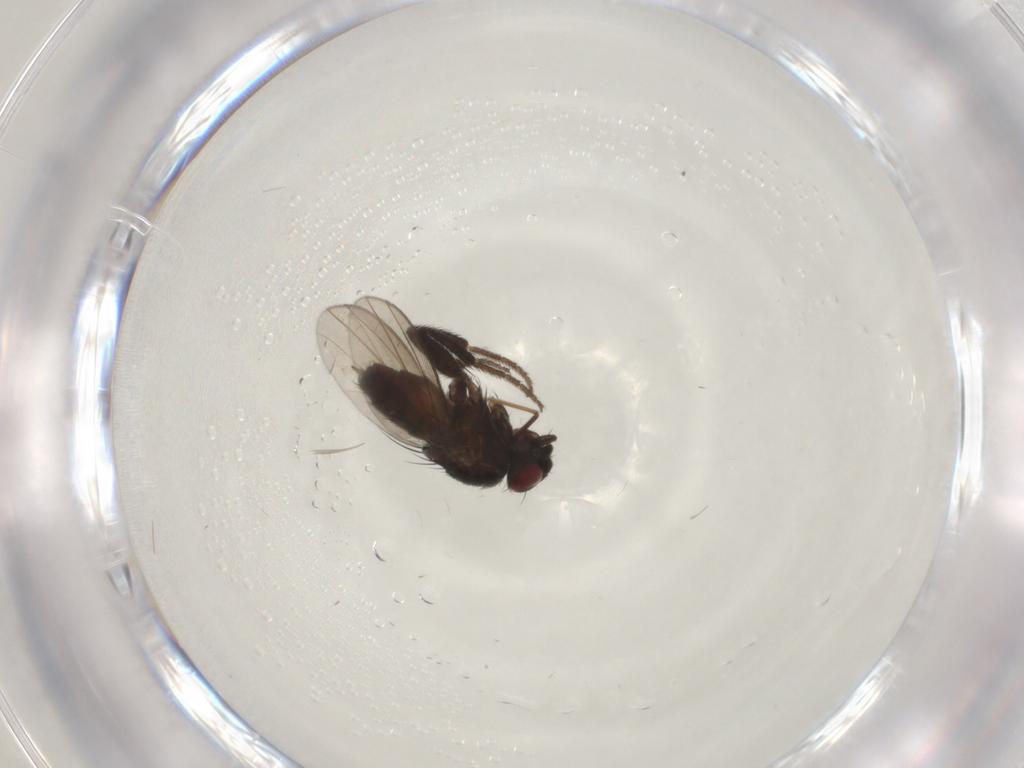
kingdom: Animalia
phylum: Arthropoda
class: Insecta
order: Diptera
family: Milichiidae
